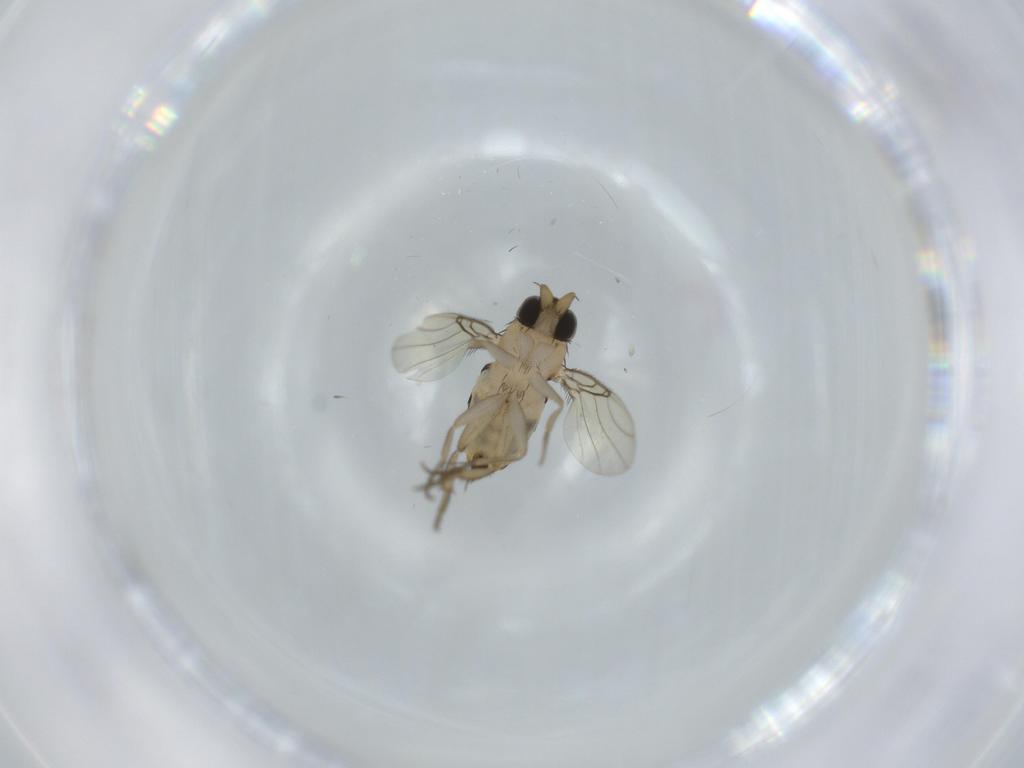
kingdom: Animalia
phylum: Arthropoda
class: Insecta
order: Diptera
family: Phoridae
